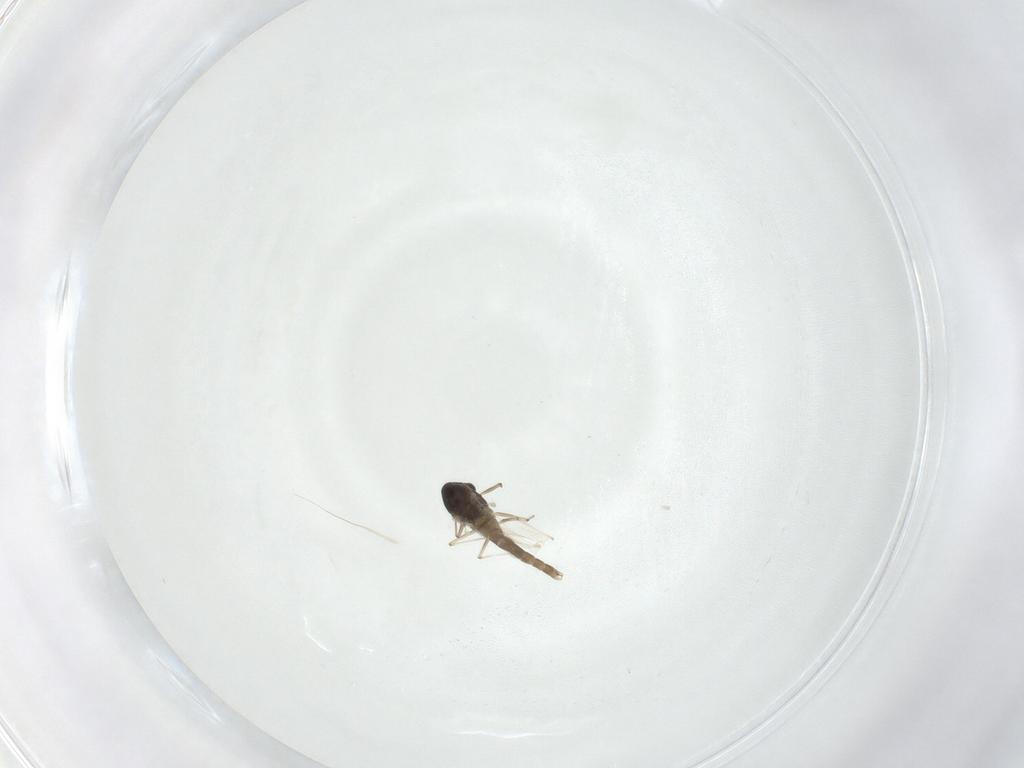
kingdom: Animalia
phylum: Arthropoda
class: Insecta
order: Diptera
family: Chironomidae
